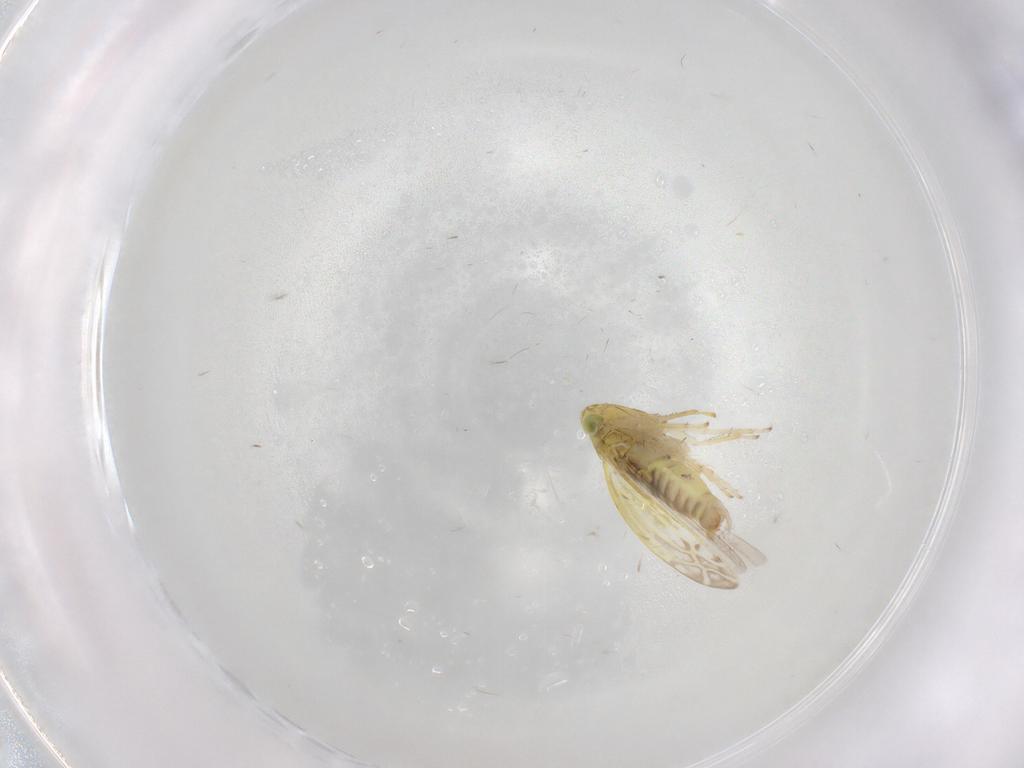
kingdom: Animalia
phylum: Arthropoda
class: Insecta
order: Hemiptera
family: Cicadellidae
